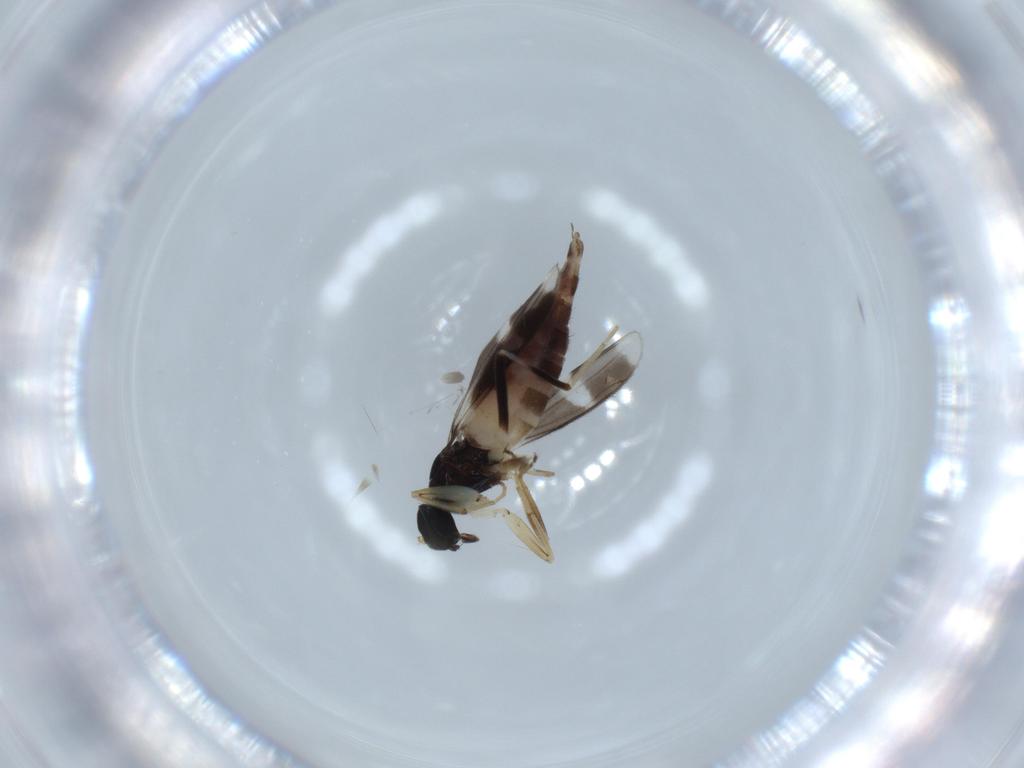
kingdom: Animalia
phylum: Arthropoda
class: Insecta
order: Diptera
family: Hybotidae
